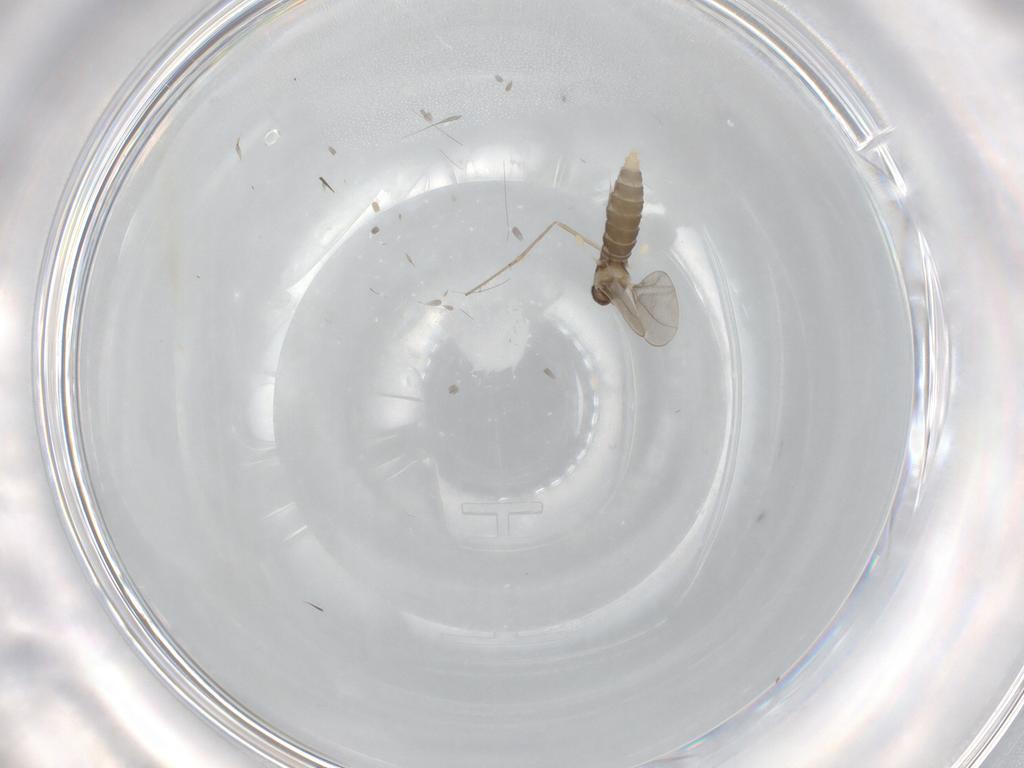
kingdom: Animalia
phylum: Arthropoda
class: Insecta
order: Diptera
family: Cecidomyiidae
